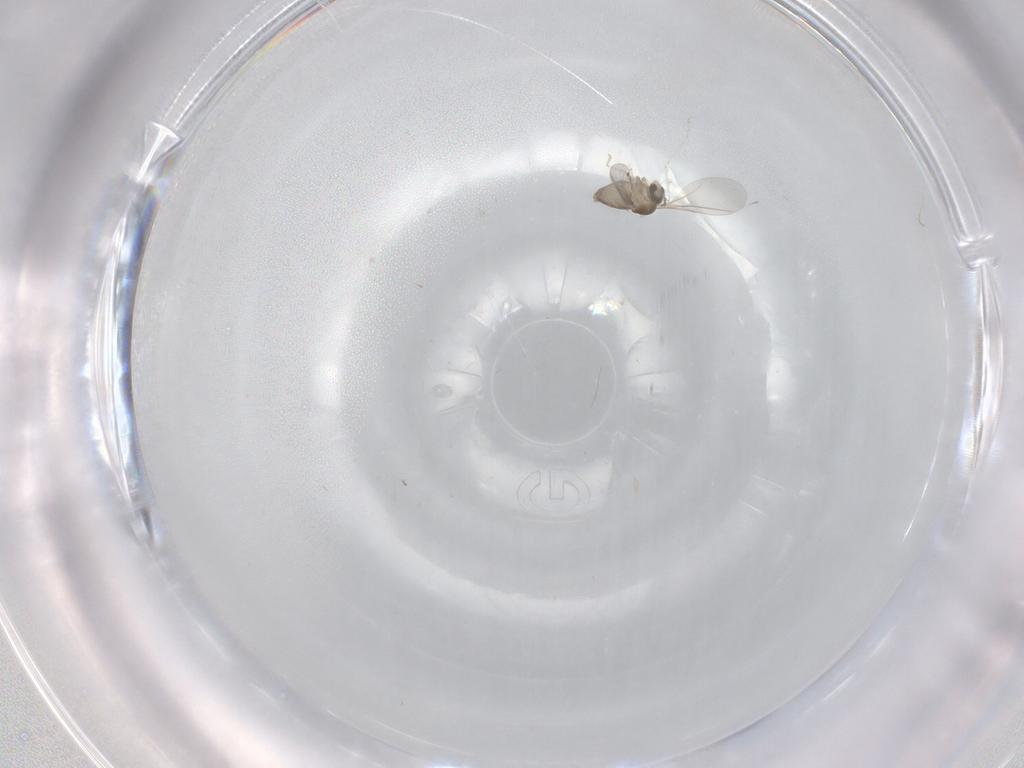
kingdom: Animalia
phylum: Arthropoda
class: Insecta
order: Diptera
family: Cecidomyiidae
